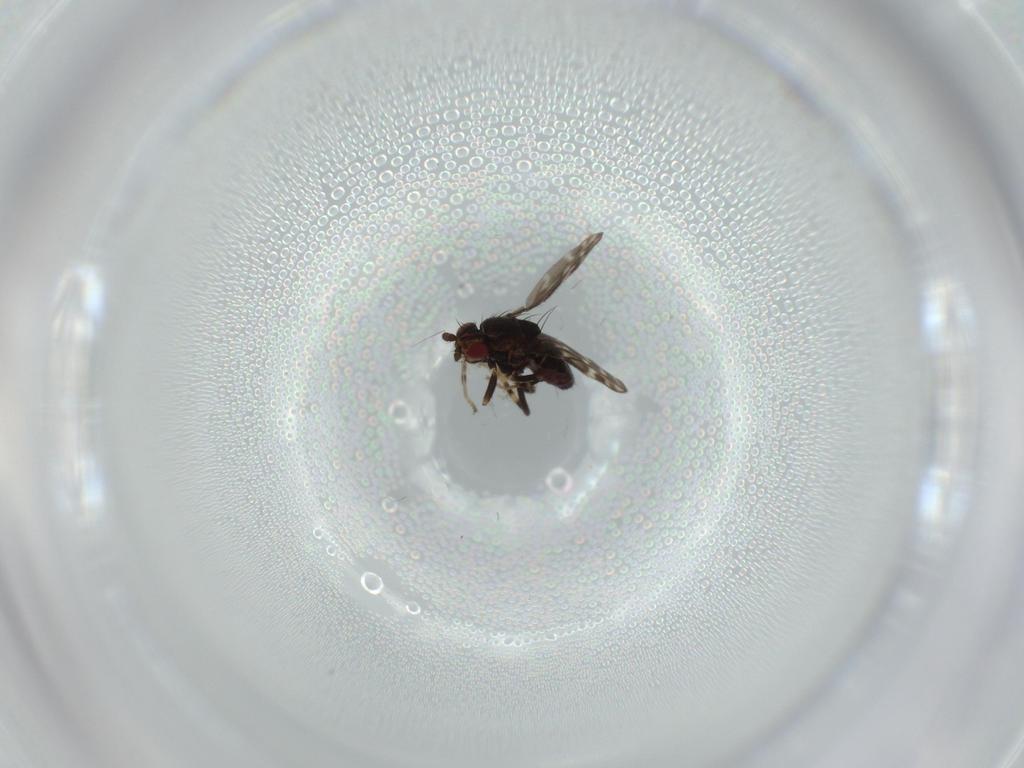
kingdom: Animalia
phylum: Arthropoda
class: Insecta
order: Diptera
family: Sphaeroceridae
